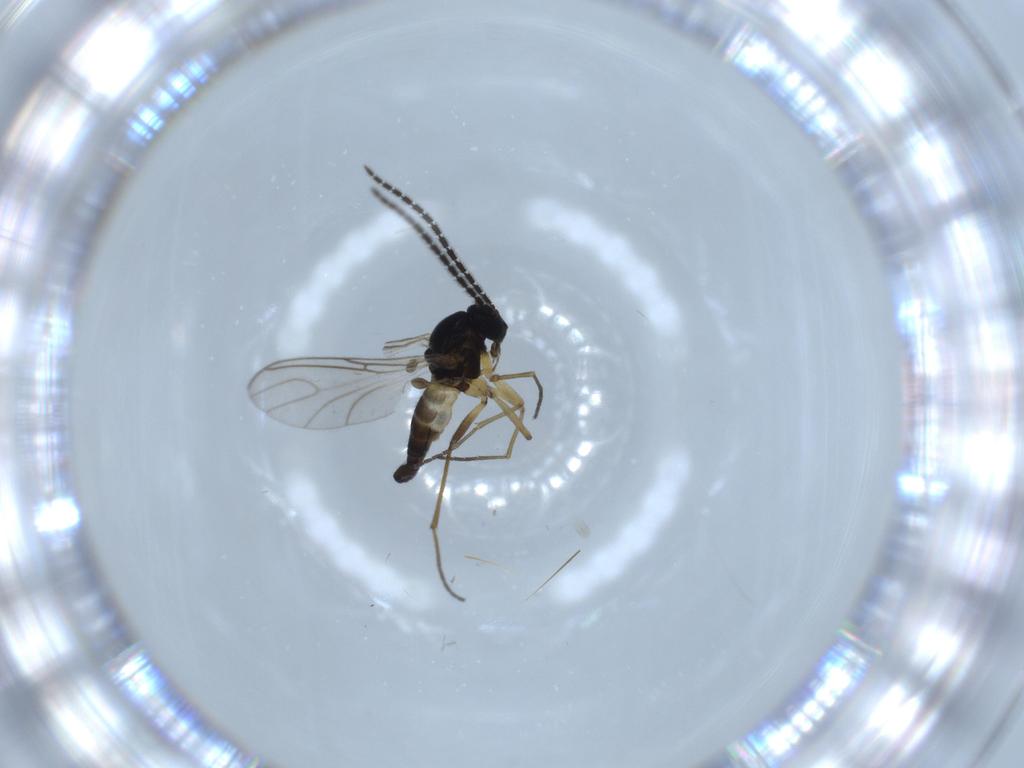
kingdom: Animalia
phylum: Arthropoda
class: Insecta
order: Diptera
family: Sciaridae
